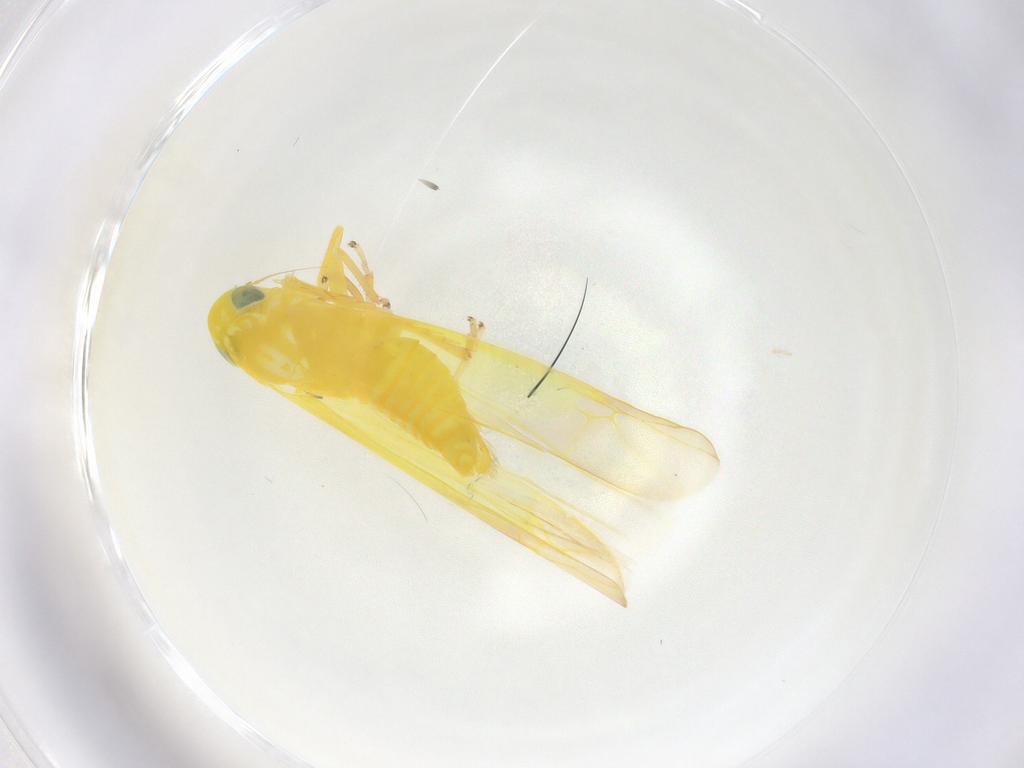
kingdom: Animalia
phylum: Arthropoda
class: Insecta
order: Hemiptera
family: Cicadellidae
